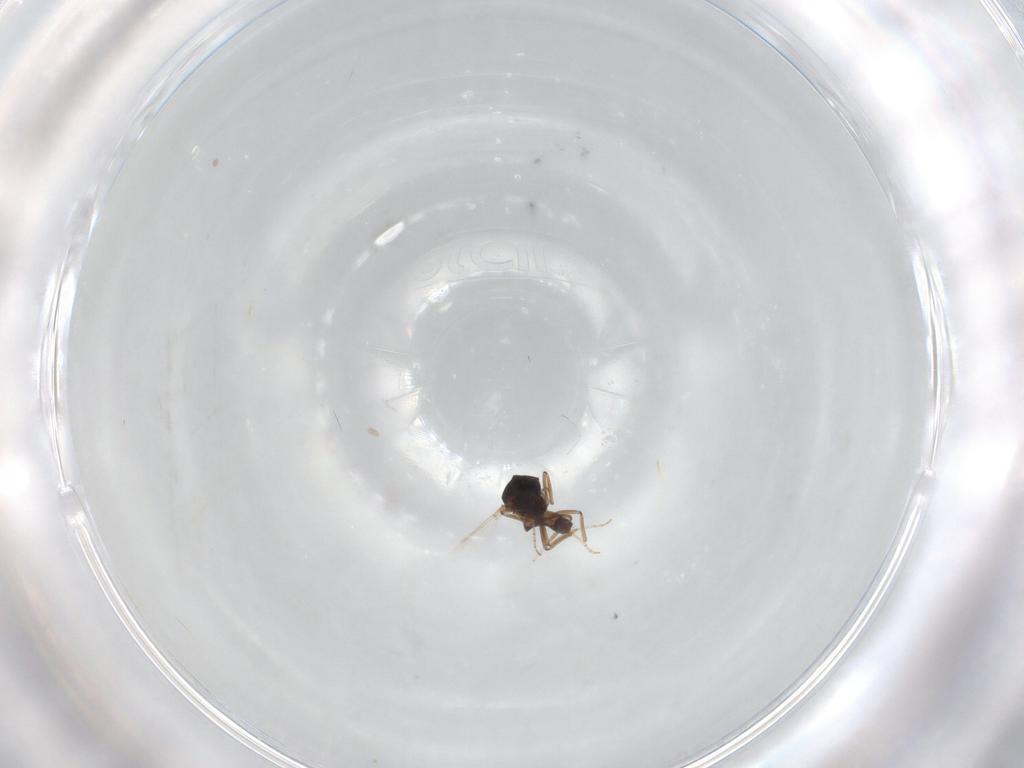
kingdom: Animalia
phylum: Arthropoda
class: Insecta
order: Diptera
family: Ceratopogonidae
